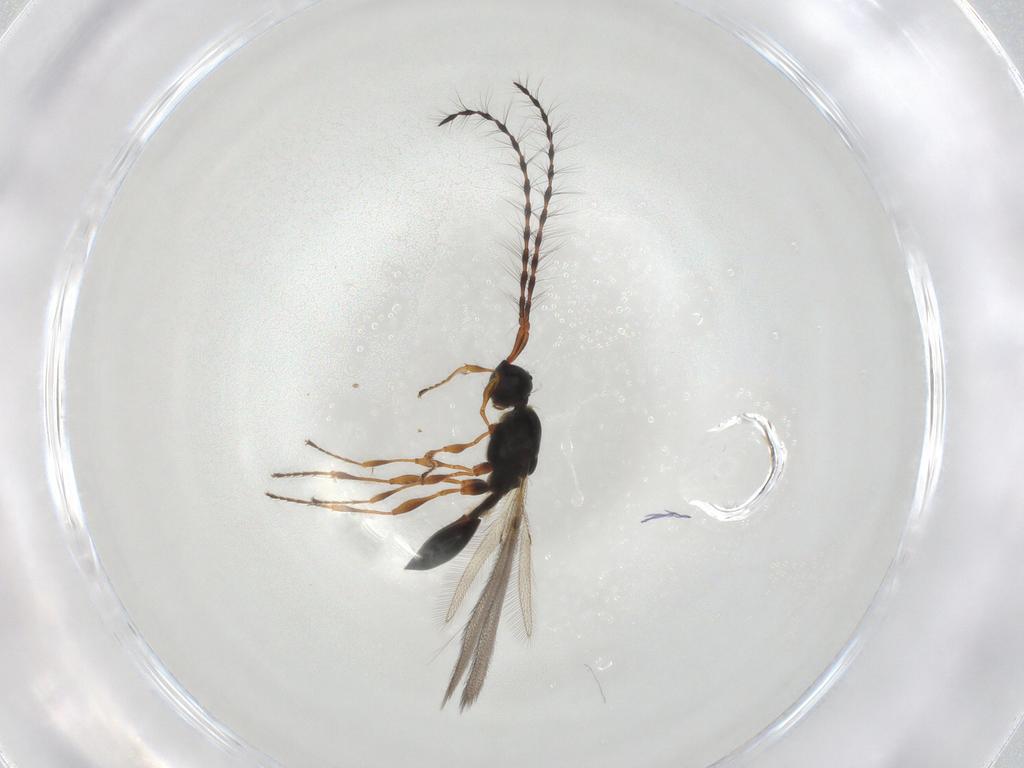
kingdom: Animalia
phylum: Arthropoda
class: Insecta
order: Hymenoptera
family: Diapriidae
